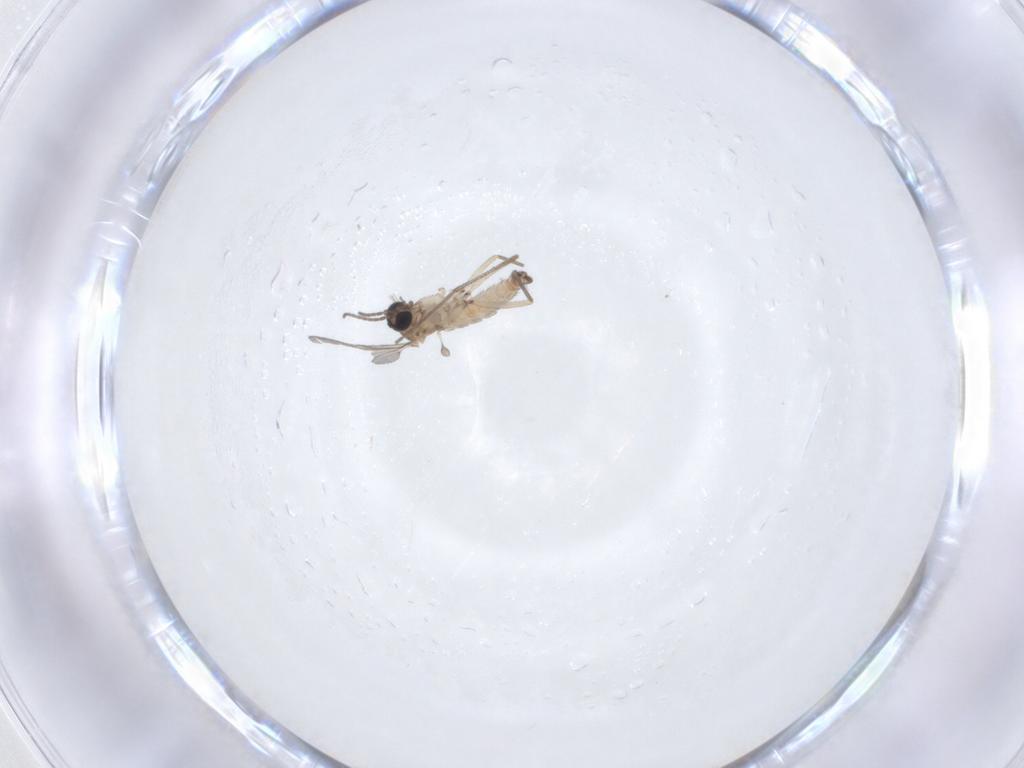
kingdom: Animalia
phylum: Arthropoda
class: Insecta
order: Diptera
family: Sciaridae
